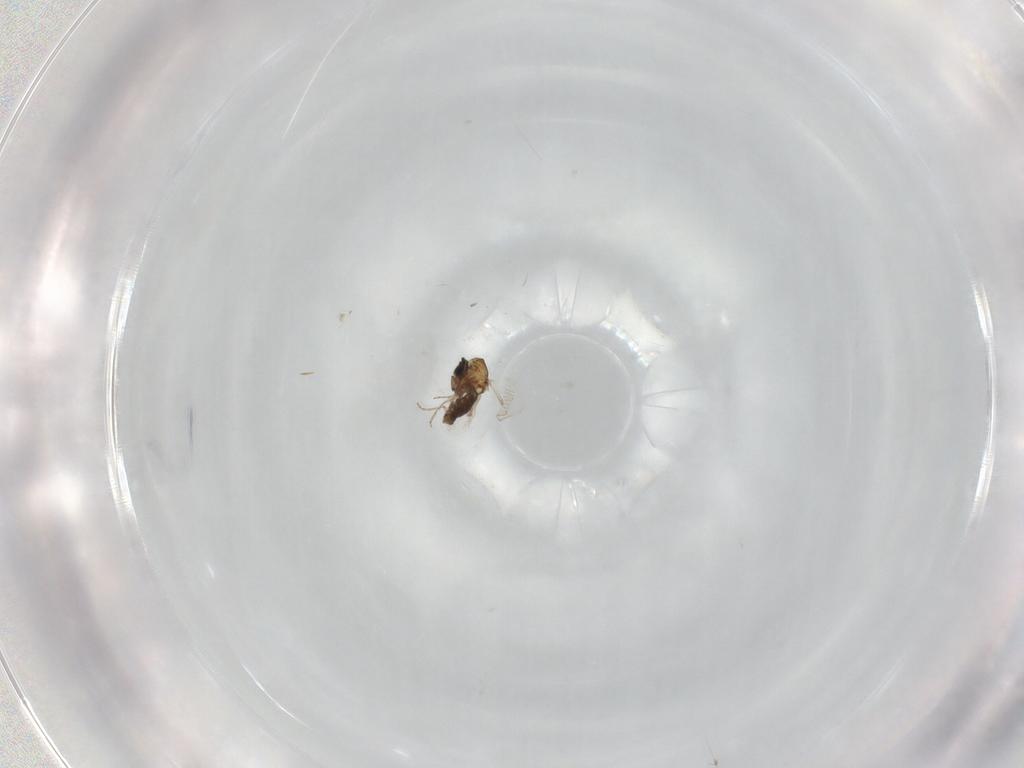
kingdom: Animalia
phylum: Arthropoda
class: Insecta
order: Diptera
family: Ceratopogonidae
